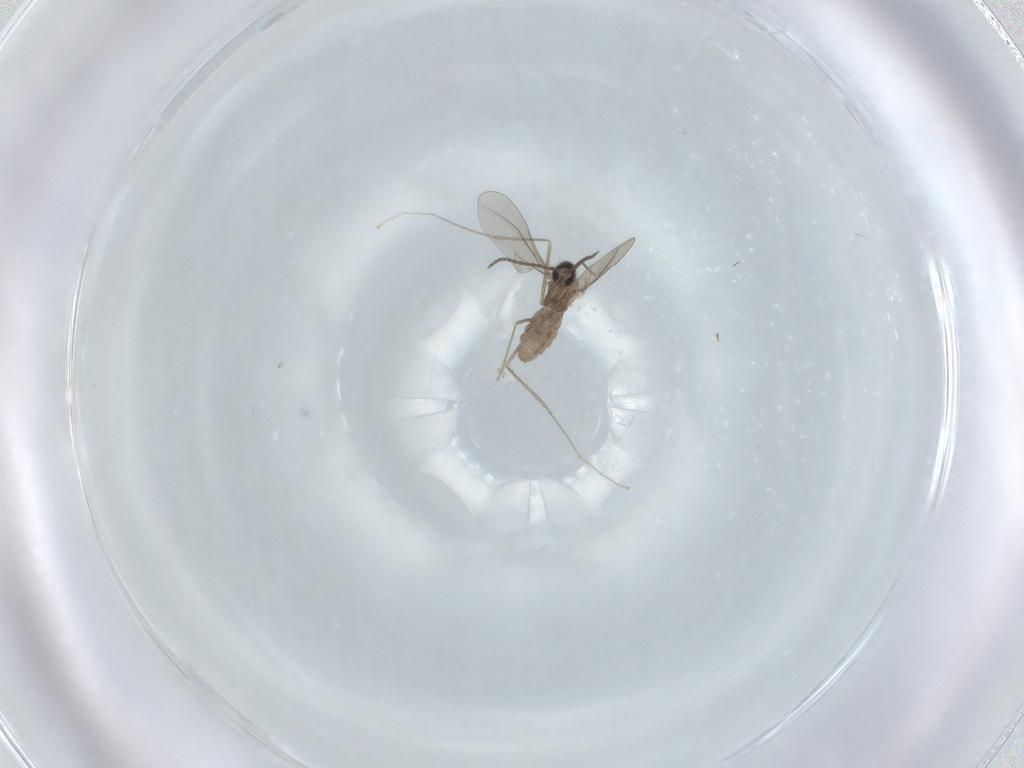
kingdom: Animalia
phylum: Arthropoda
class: Insecta
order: Diptera
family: Cecidomyiidae
